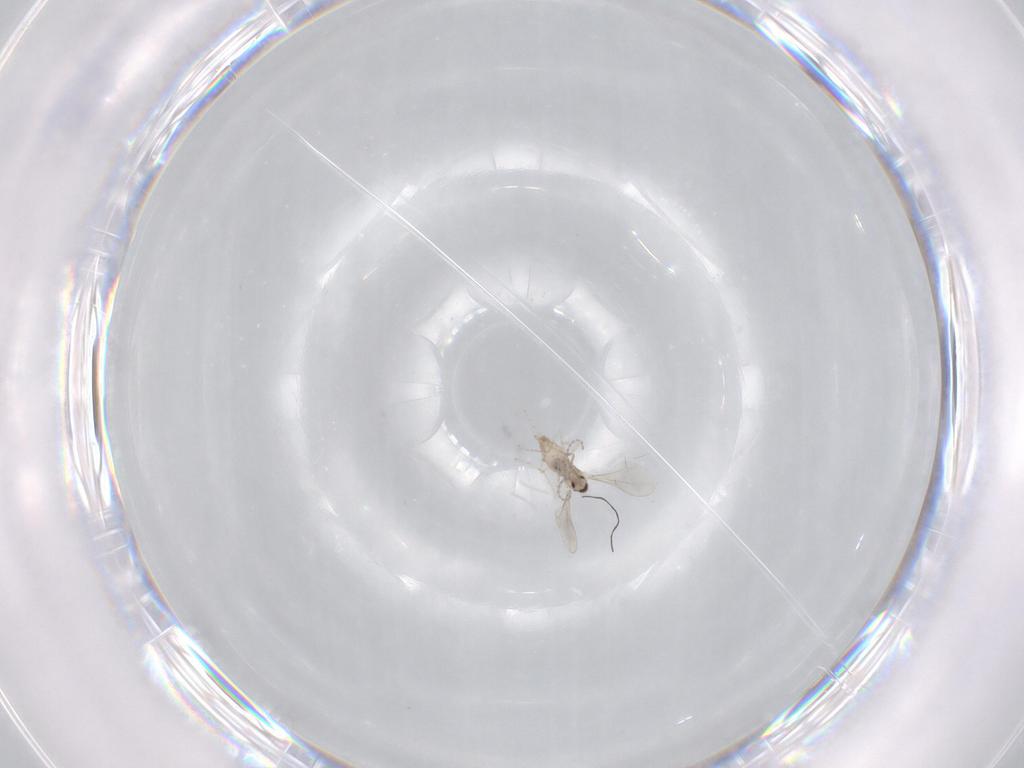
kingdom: Animalia
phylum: Arthropoda
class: Insecta
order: Diptera
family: Cecidomyiidae
